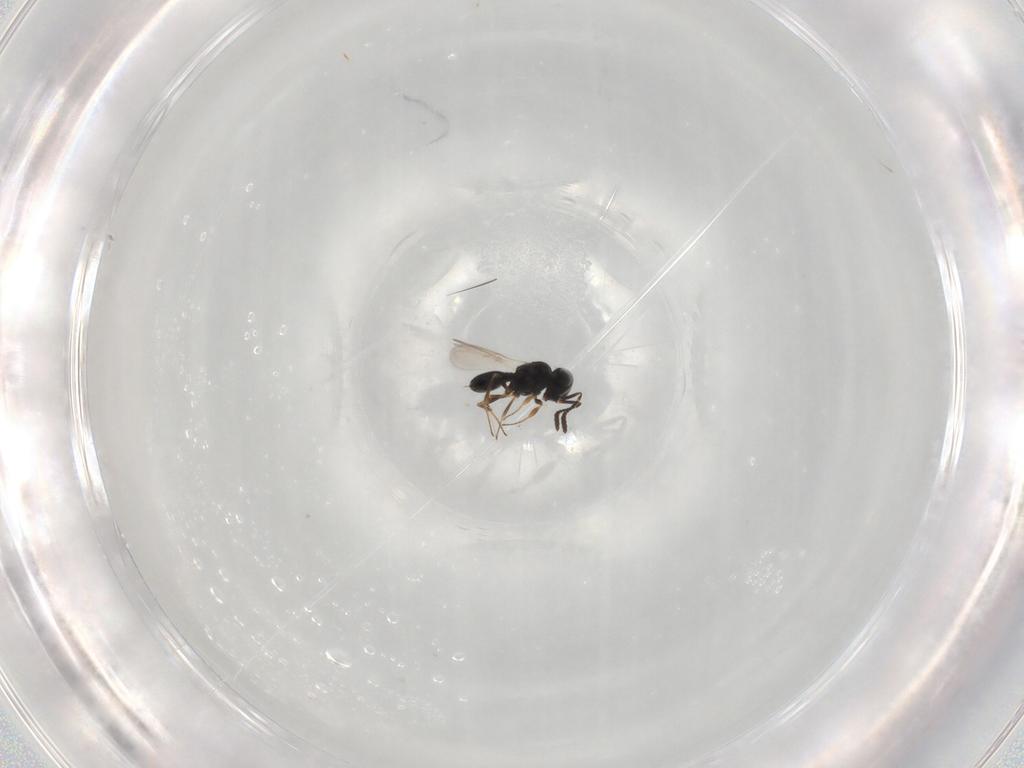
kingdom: Animalia
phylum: Arthropoda
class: Insecta
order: Hymenoptera
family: Scelionidae
